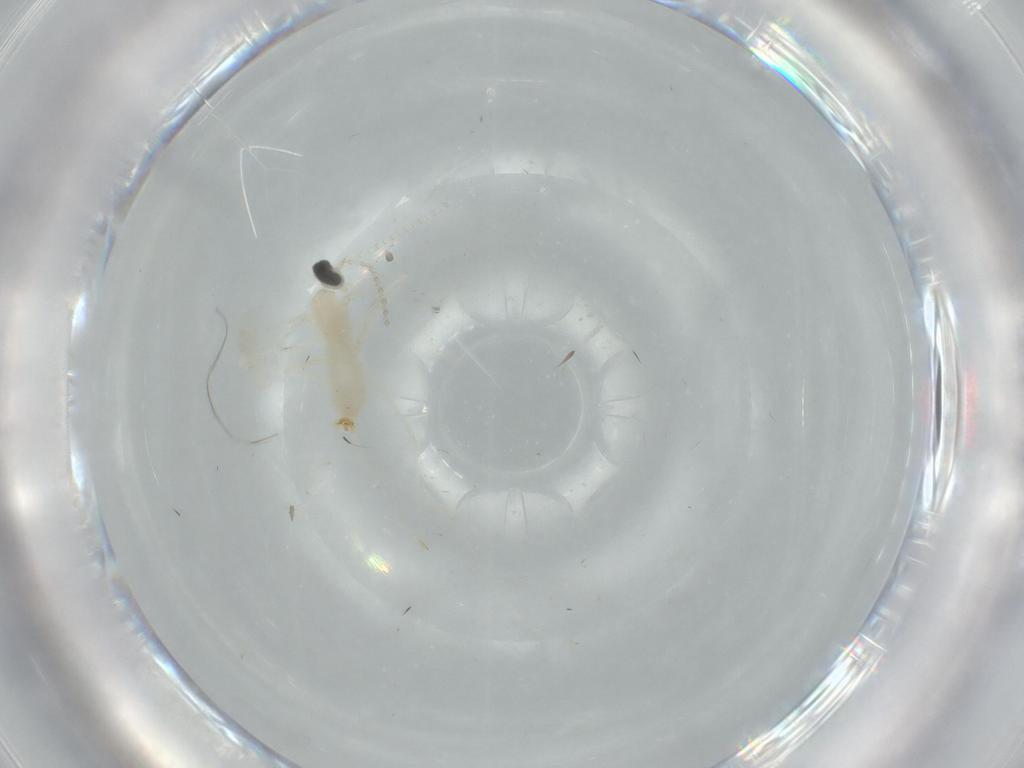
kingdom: Animalia
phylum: Arthropoda
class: Insecta
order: Diptera
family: Cecidomyiidae
